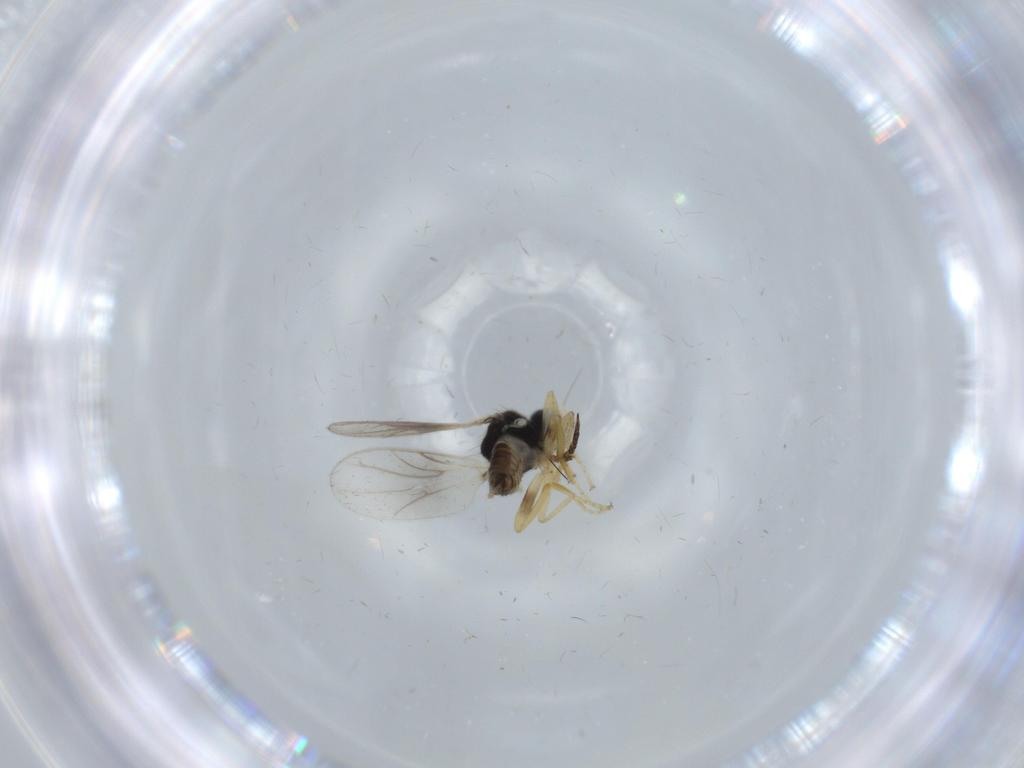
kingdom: Animalia
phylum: Arthropoda
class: Insecta
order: Diptera
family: Hybotidae
